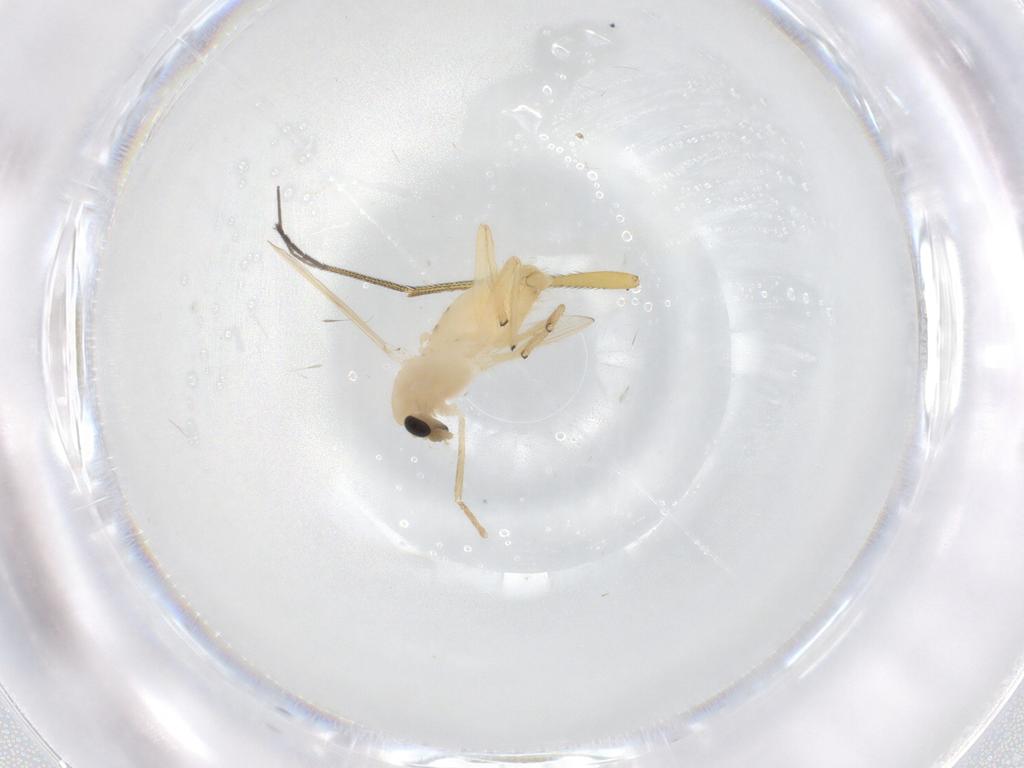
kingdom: Animalia
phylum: Arthropoda
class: Insecta
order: Diptera
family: Chironomidae
